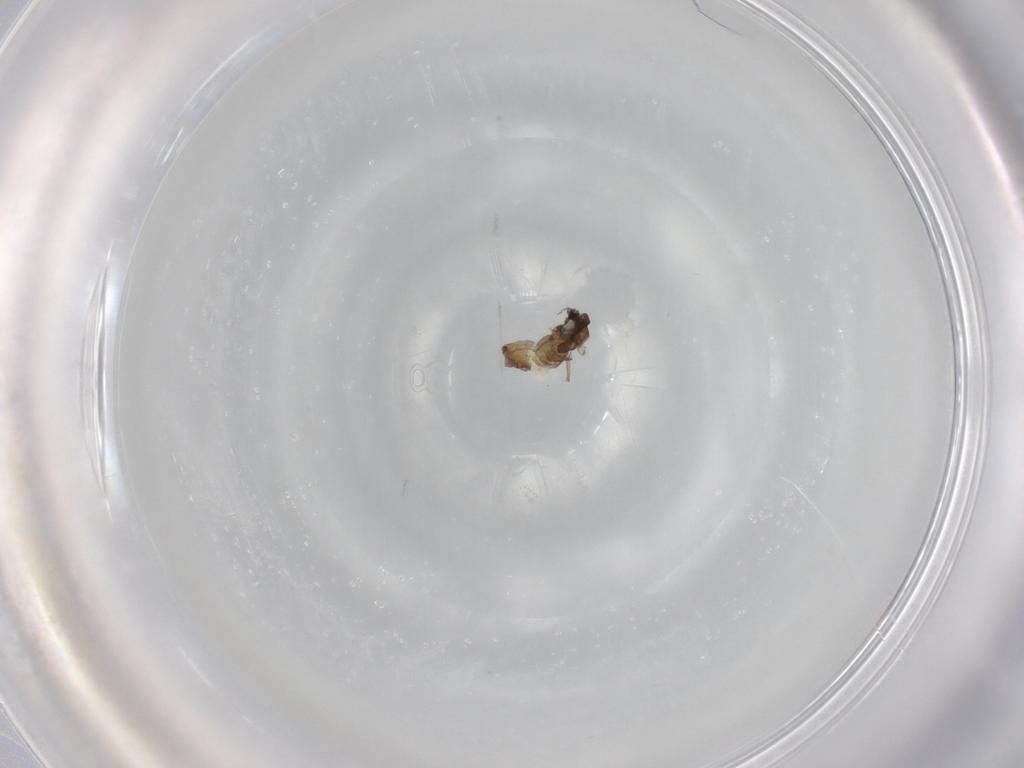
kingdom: Animalia
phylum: Arthropoda
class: Insecta
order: Diptera
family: Chironomidae
